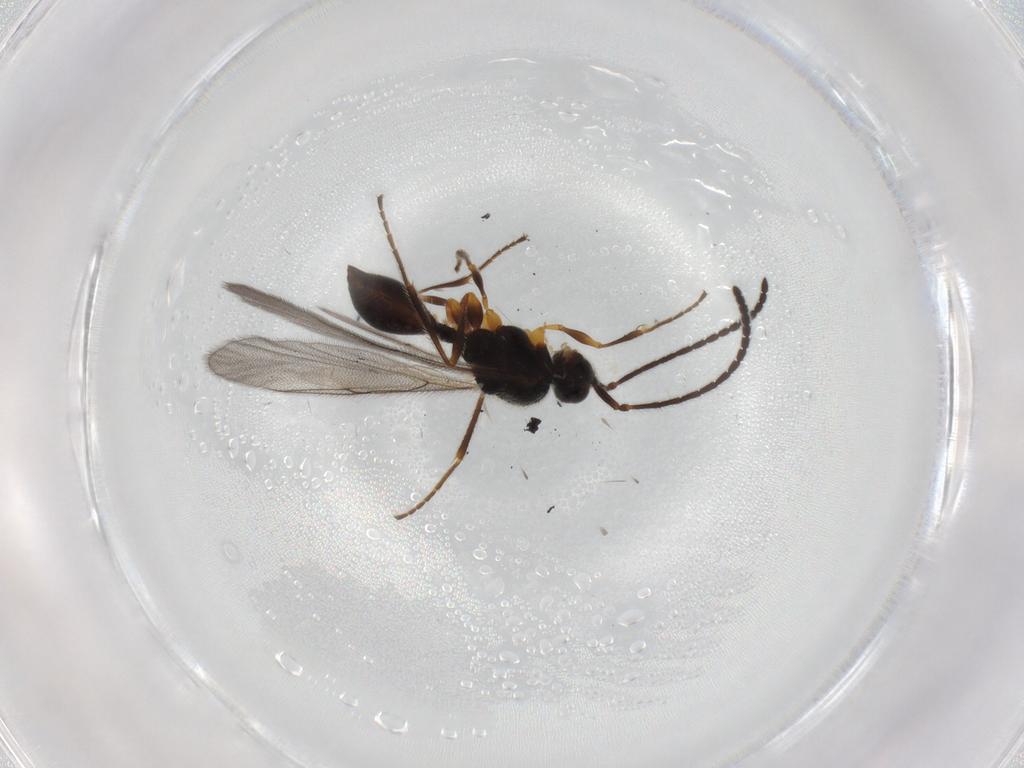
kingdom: Animalia
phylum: Arthropoda
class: Insecta
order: Hymenoptera
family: Diapriidae
